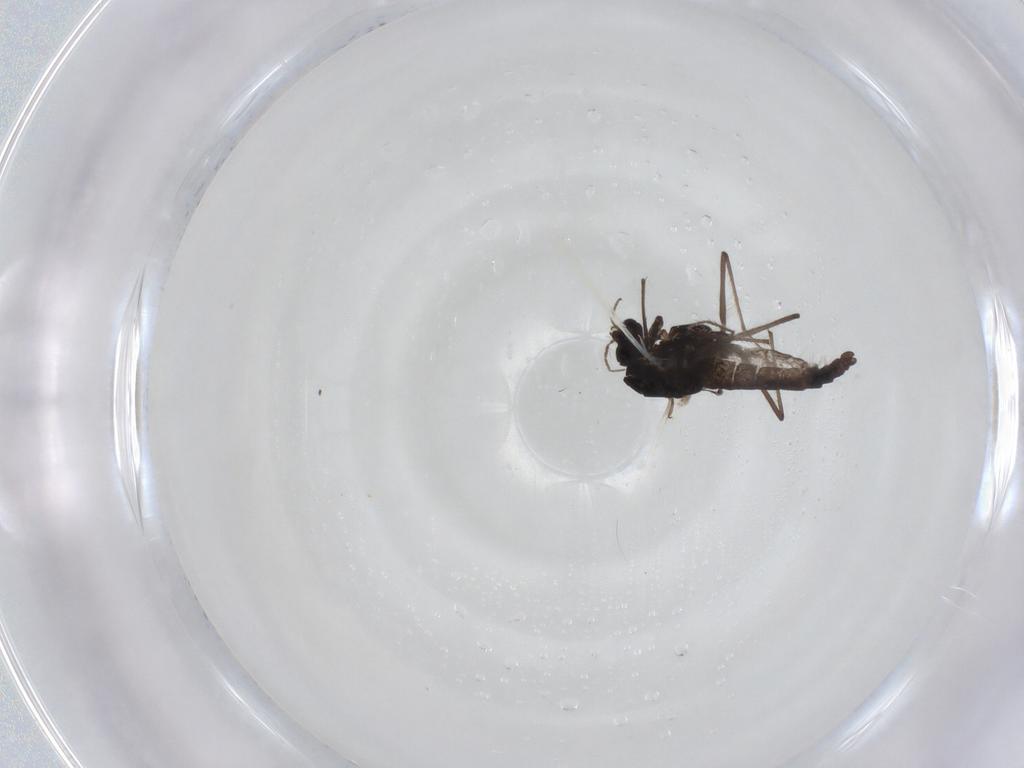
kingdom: Animalia
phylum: Arthropoda
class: Insecta
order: Diptera
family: Chironomidae
